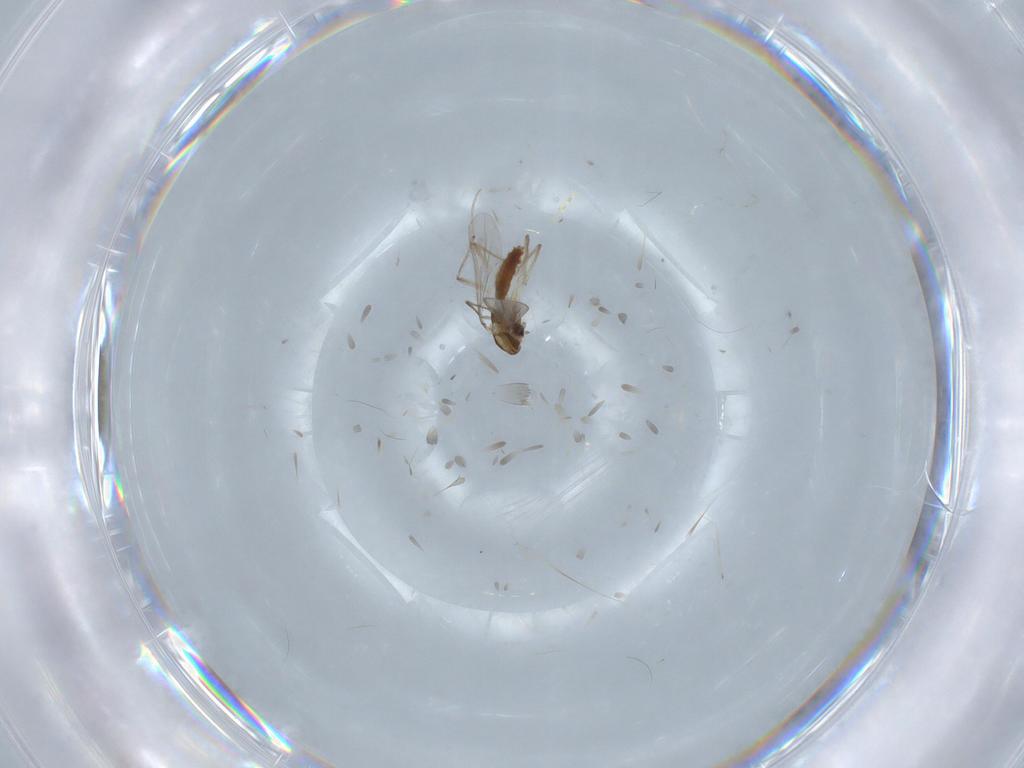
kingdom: Animalia
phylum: Arthropoda
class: Insecta
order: Diptera
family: Chironomidae
